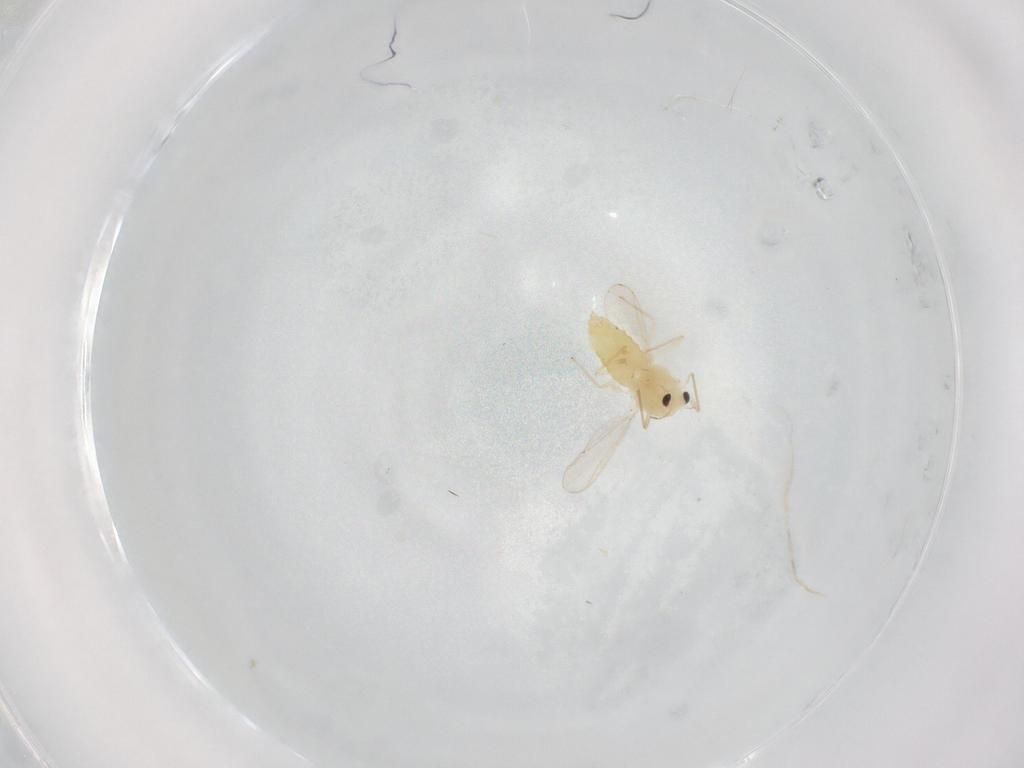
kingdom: Animalia
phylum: Arthropoda
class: Insecta
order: Diptera
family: Chironomidae
